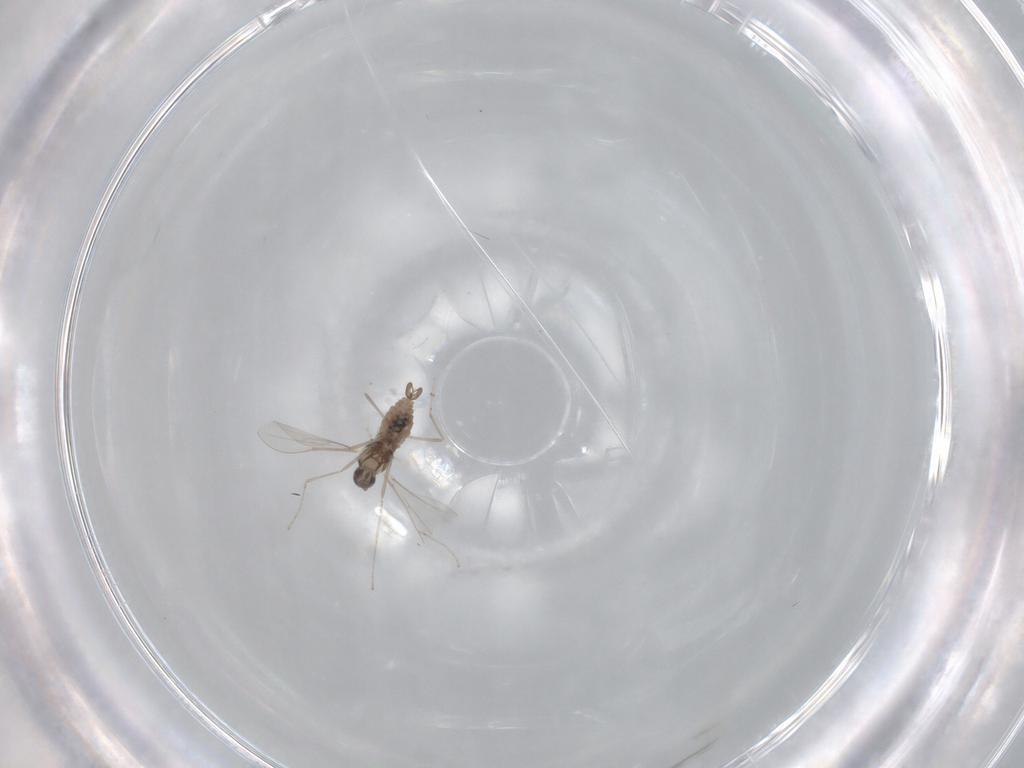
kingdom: Animalia
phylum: Arthropoda
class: Insecta
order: Diptera
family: Cecidomyiidae
